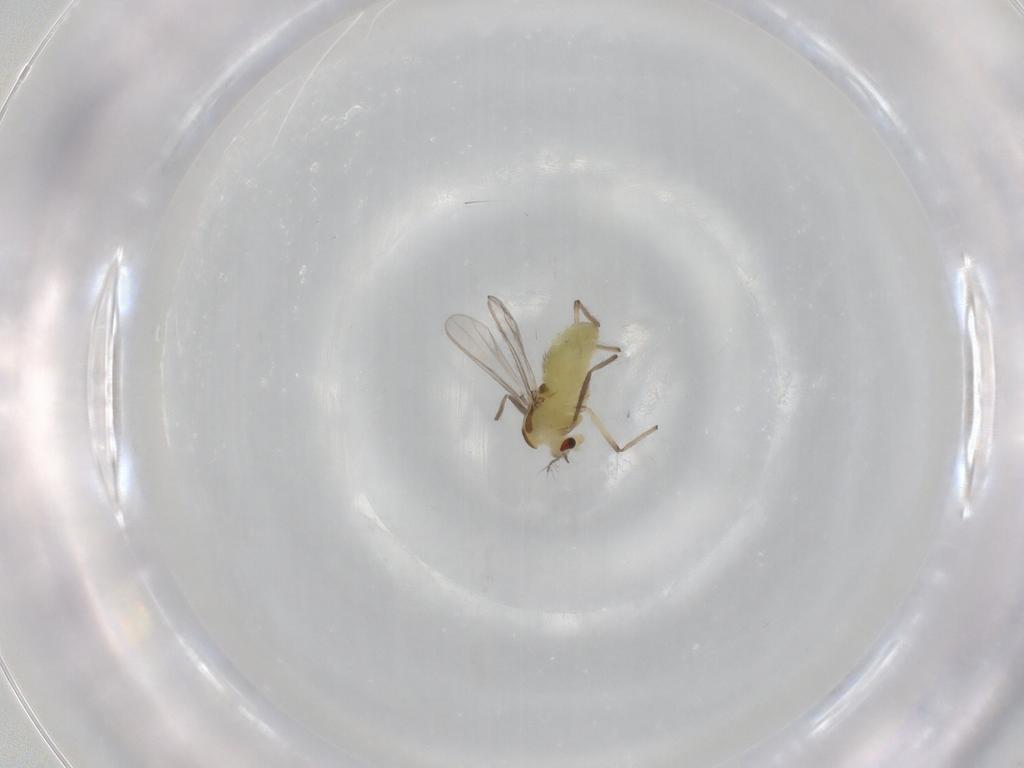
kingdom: Animalia
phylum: Arthropoda
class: Insecta
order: Diptera
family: Chironomidae
